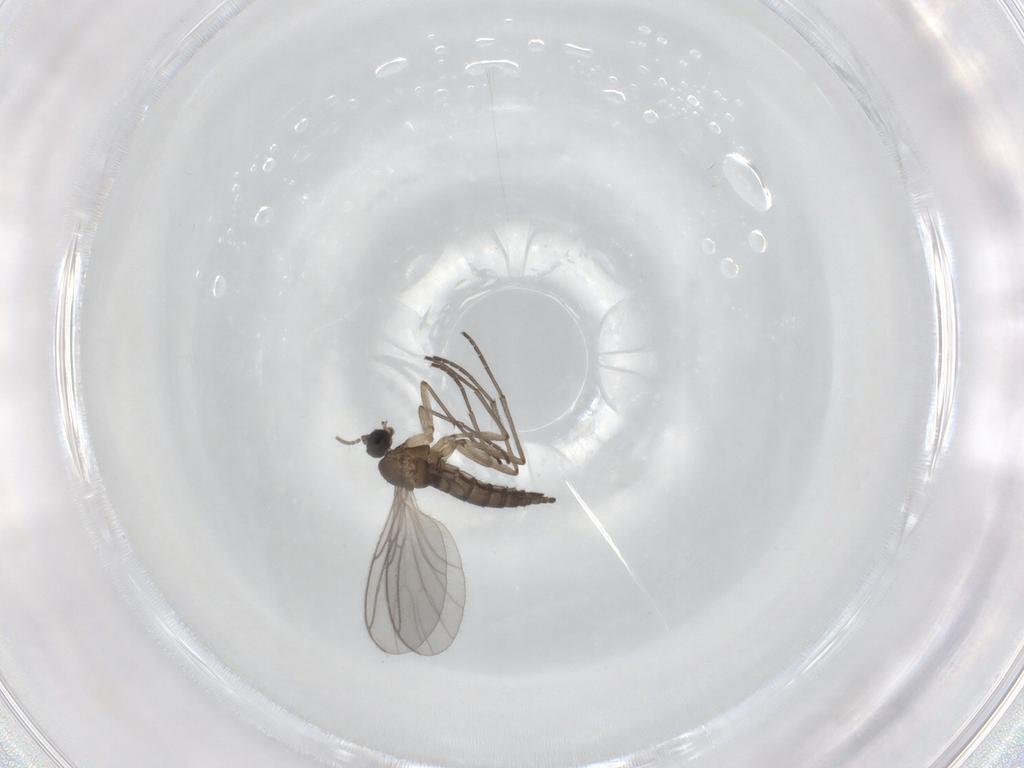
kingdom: Animalia
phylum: Arthropoda
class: Insecta
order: Diptera
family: Sciaridae
